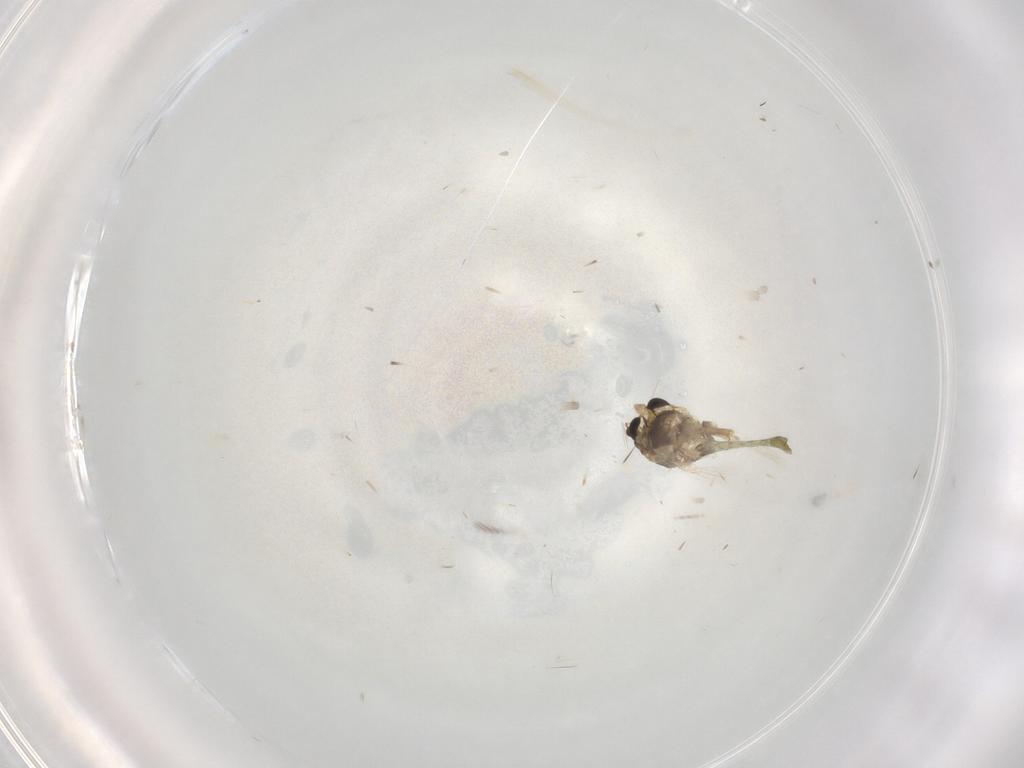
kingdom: Animalia
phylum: Arthropoda
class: Insecta
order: Diptera
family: Chironomidae
